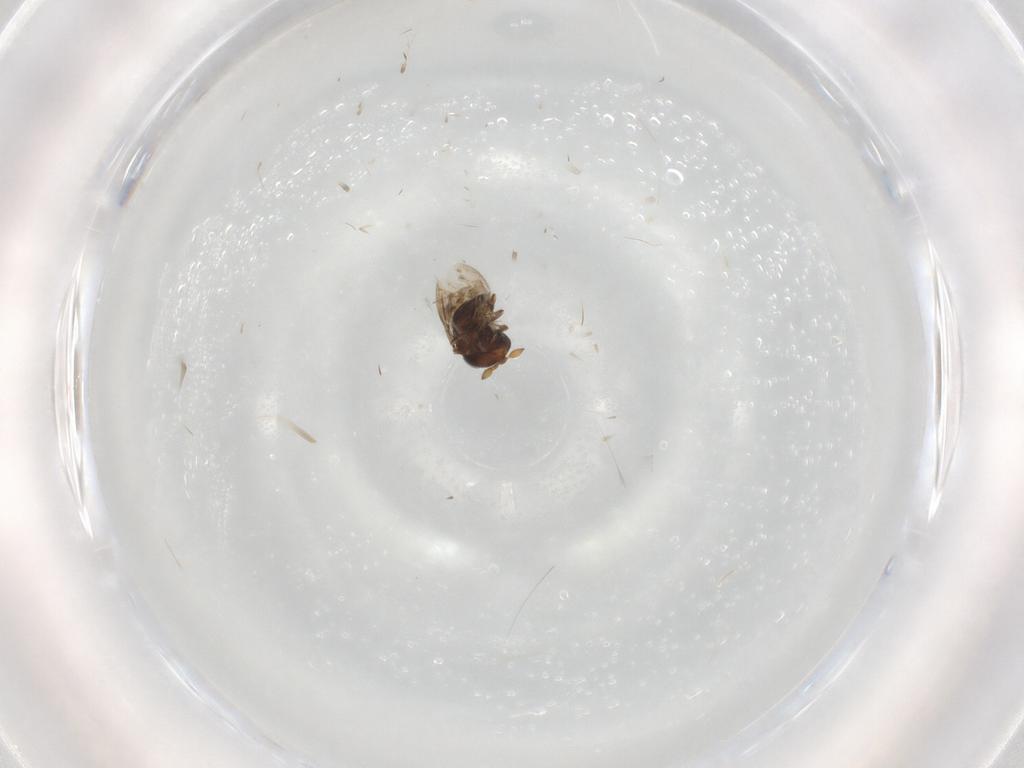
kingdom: Animalia
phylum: Arthropoda
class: Insecta
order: Hymenoptera
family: Scelionidae
